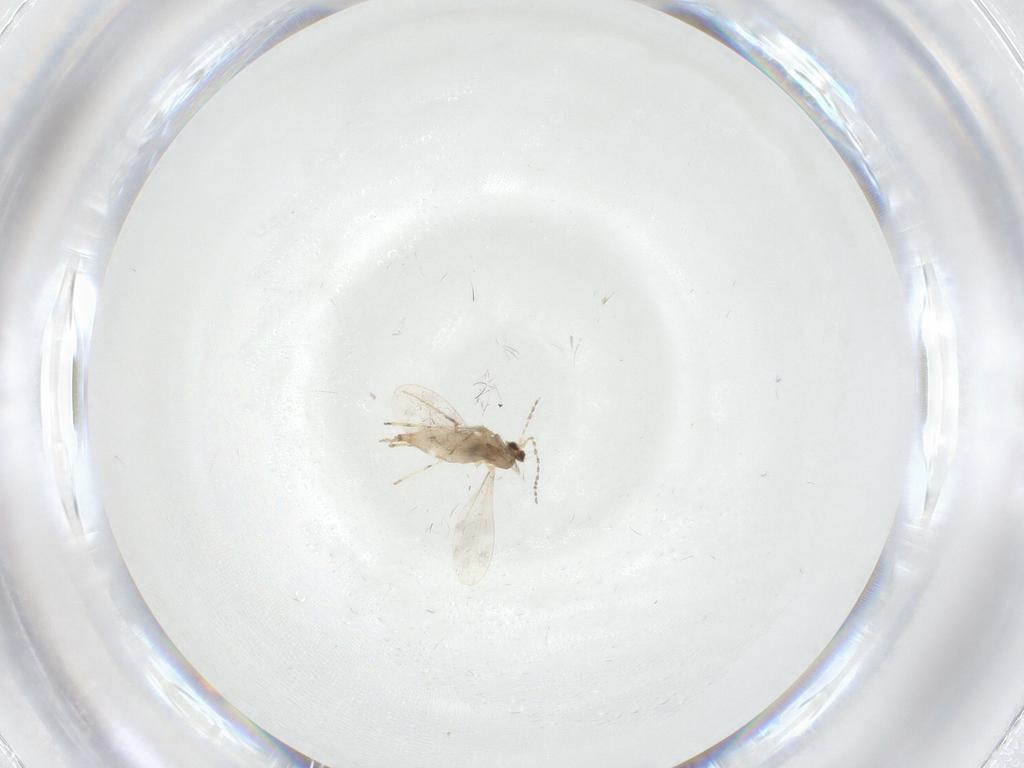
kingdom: Animalia
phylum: Arthropoda
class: Insecta
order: Diptera
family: Cecidomyiidae
